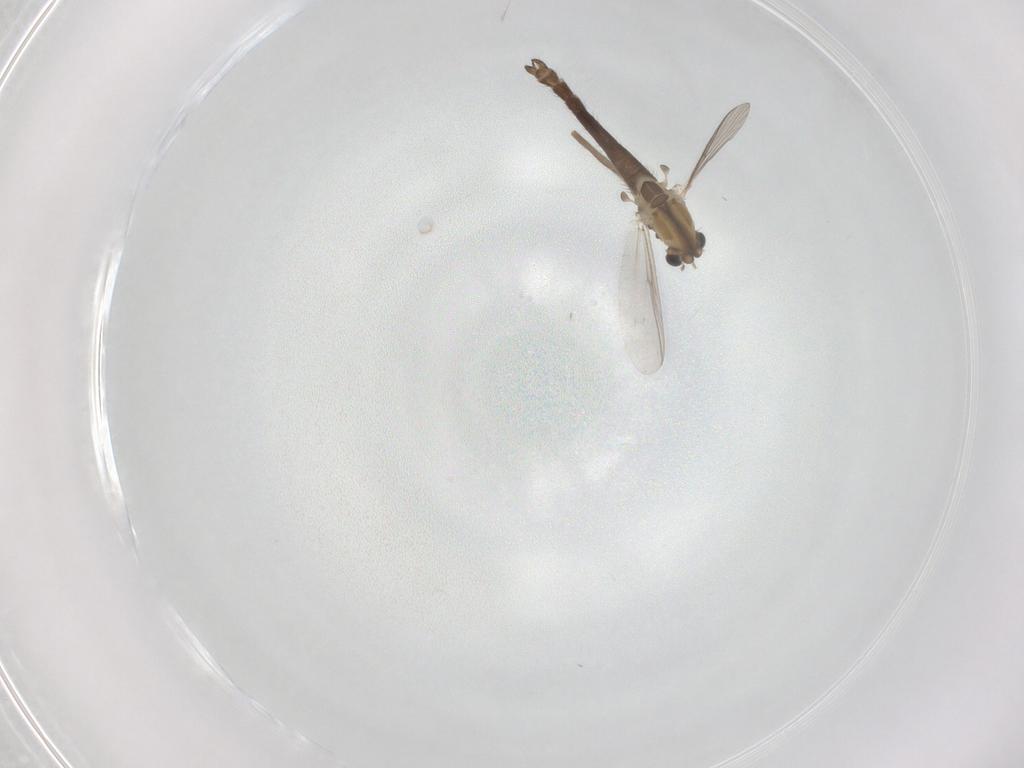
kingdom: Animalia
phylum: Arthropoda
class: Insecta
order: Diptera
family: Chironomidae
